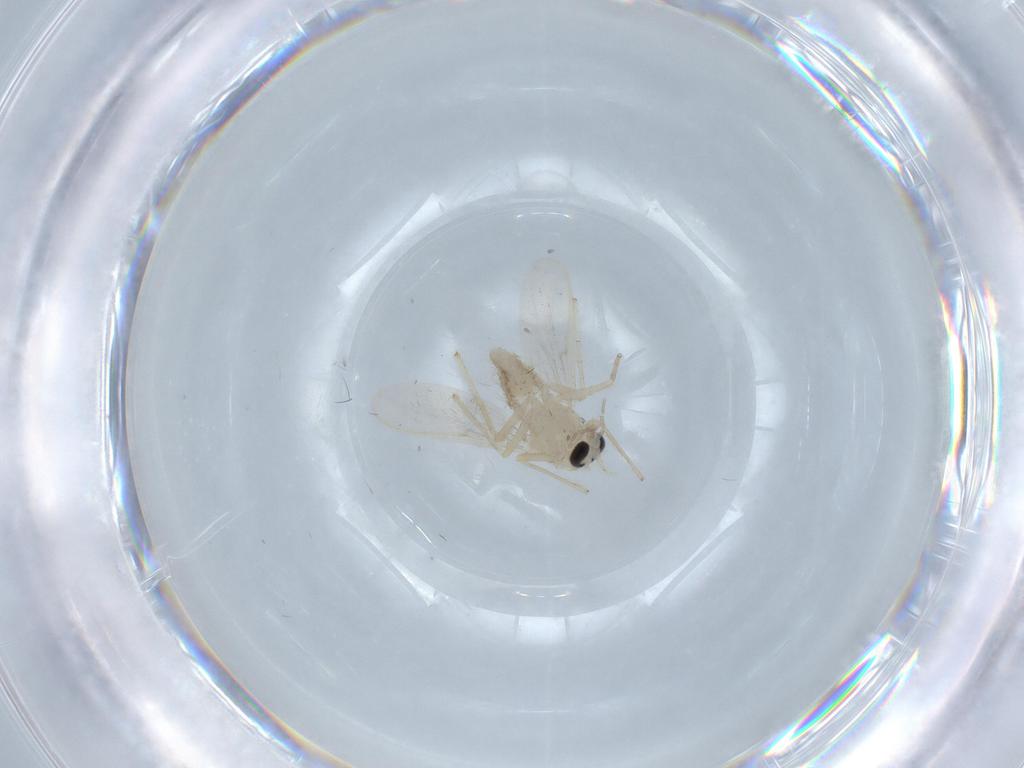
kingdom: Animalia
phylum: Arthropoda
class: Insecta
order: Diptera
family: Chironomidae
